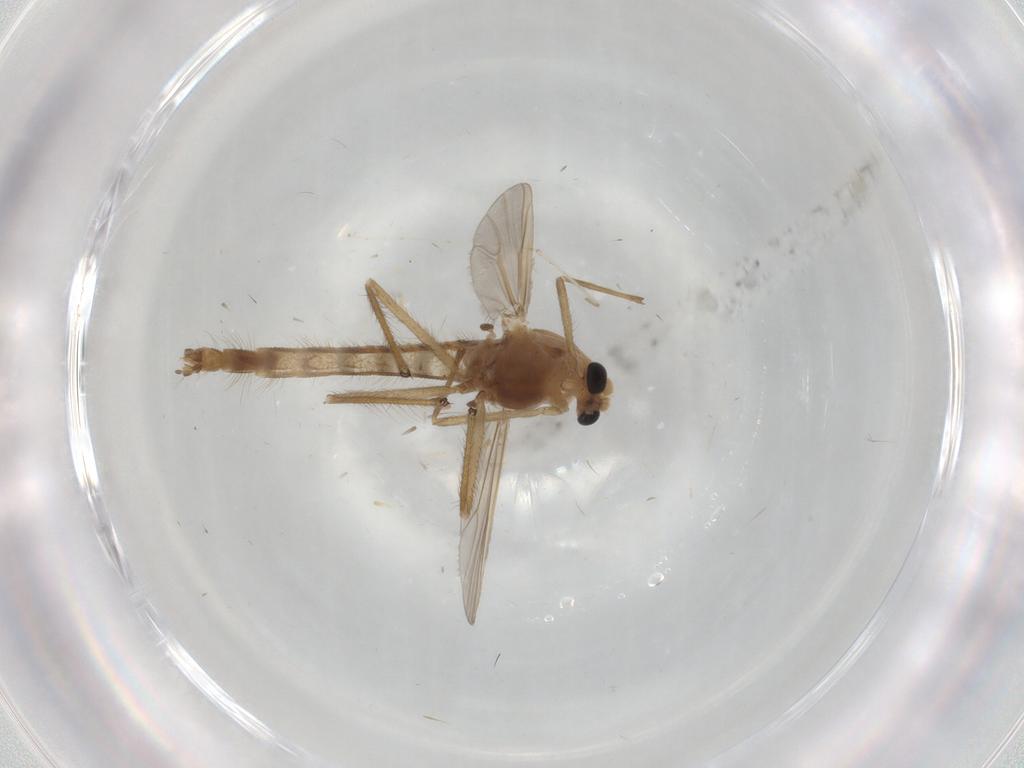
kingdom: Animalia
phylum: Arthropoda
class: Insecta
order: Diptera
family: Chironomidae
